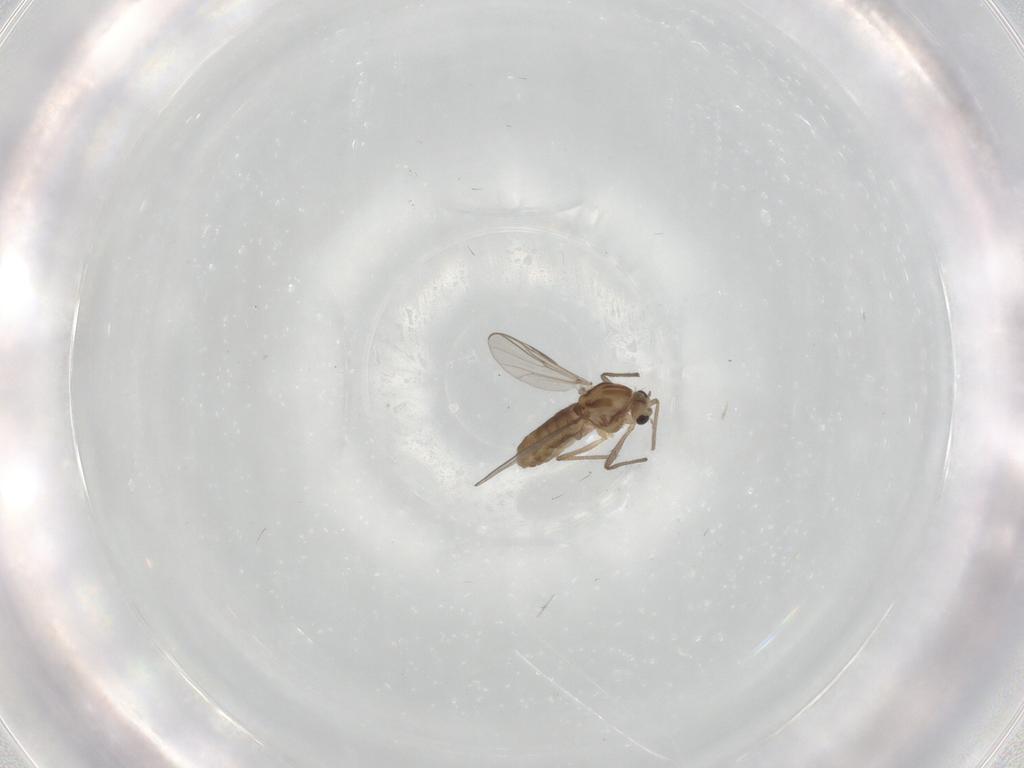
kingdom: Animalia
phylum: Arthropoda
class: Insecta
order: Diptera
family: Chironomidae
